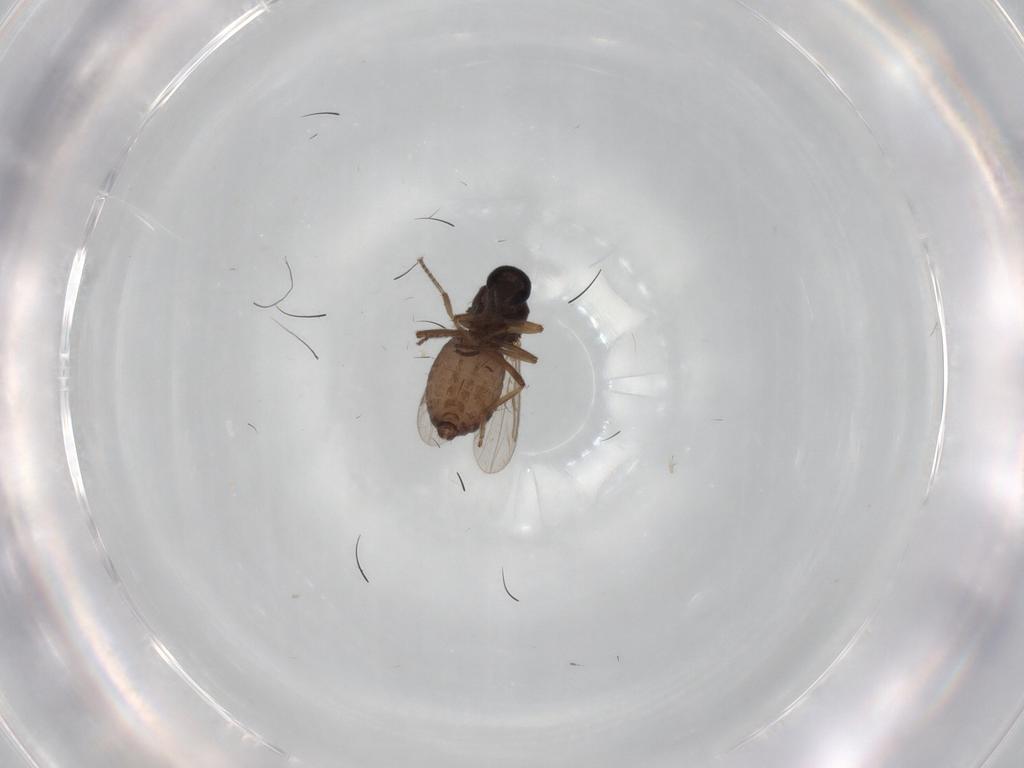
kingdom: Animalia
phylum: Arthropoda
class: Insecta
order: Diptera
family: Ceratopogonidae
